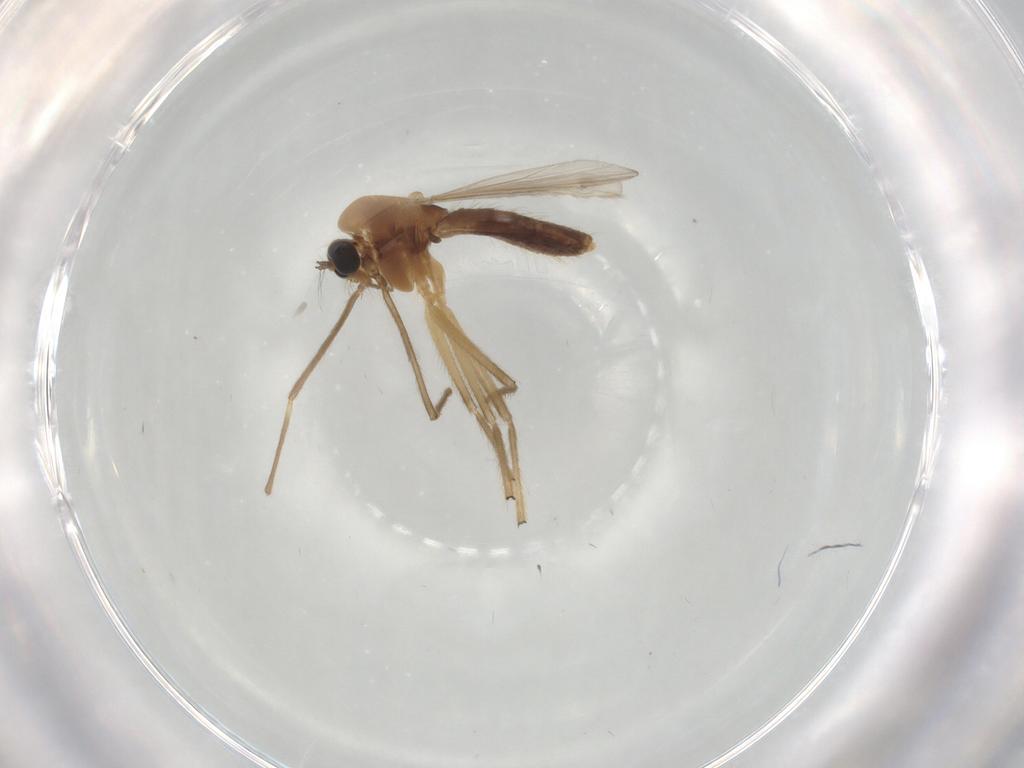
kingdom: Animalia
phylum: Arthropoda
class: Insecta
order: Diptera
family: Chironomidae
